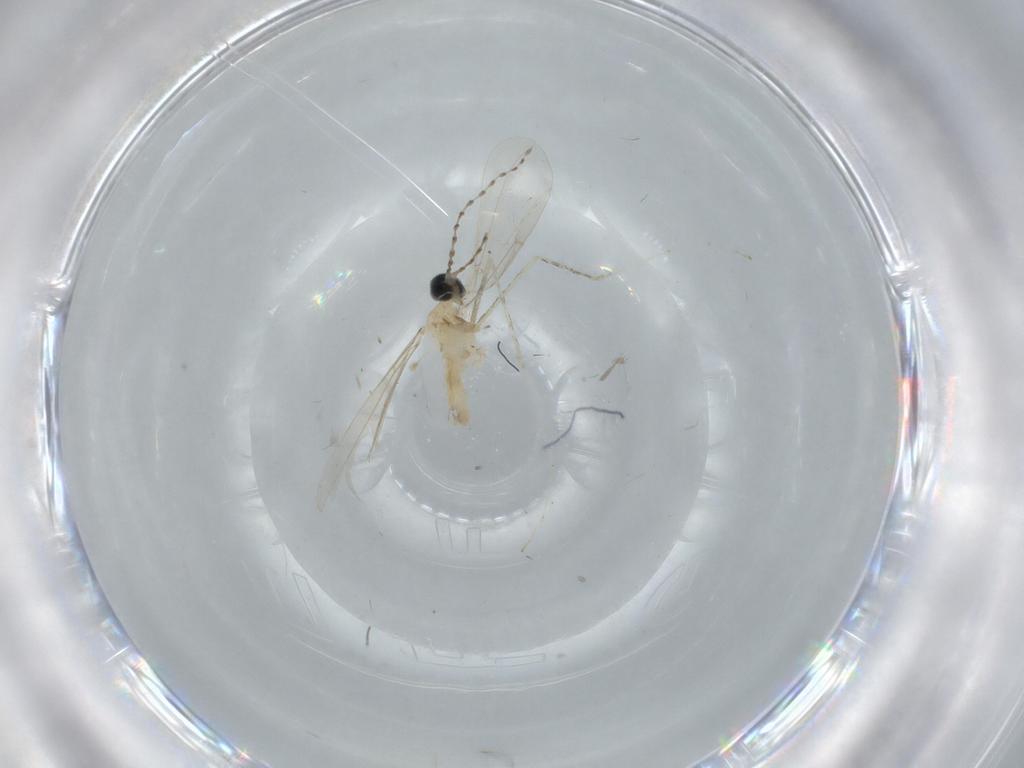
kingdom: Animalia
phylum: Arthropoda
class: Insecta
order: Diptera
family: Cecidomyiidae
